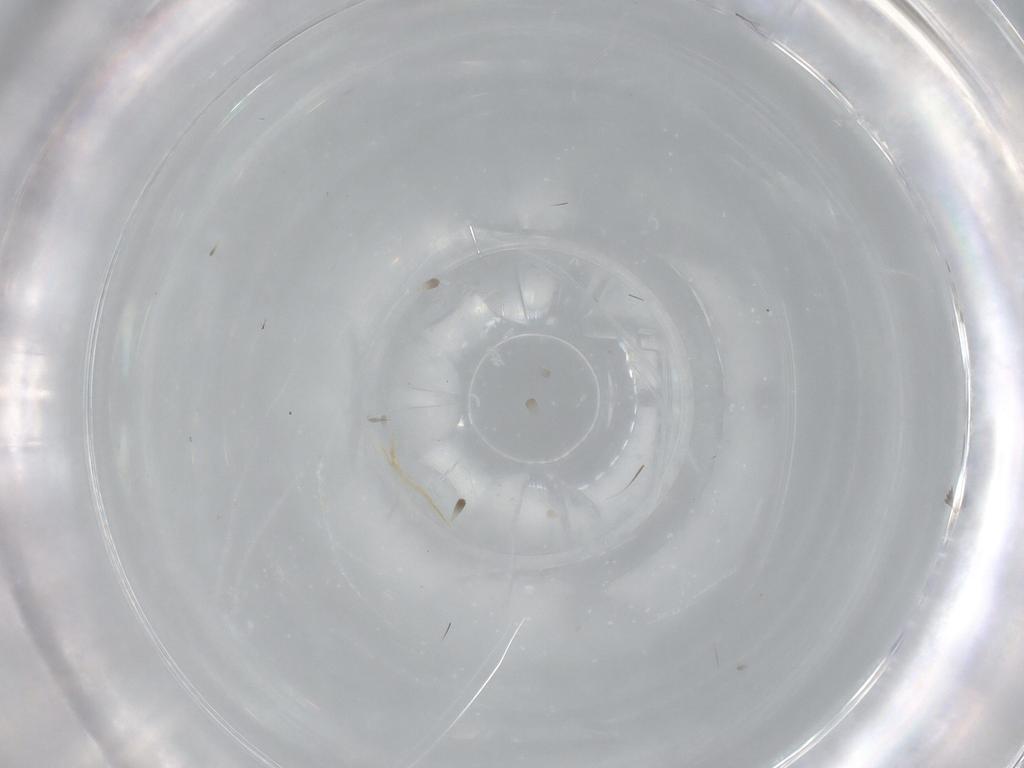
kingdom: Animalia
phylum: Arthropoda
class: Insecta
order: Hymenoptera
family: Formicidae
